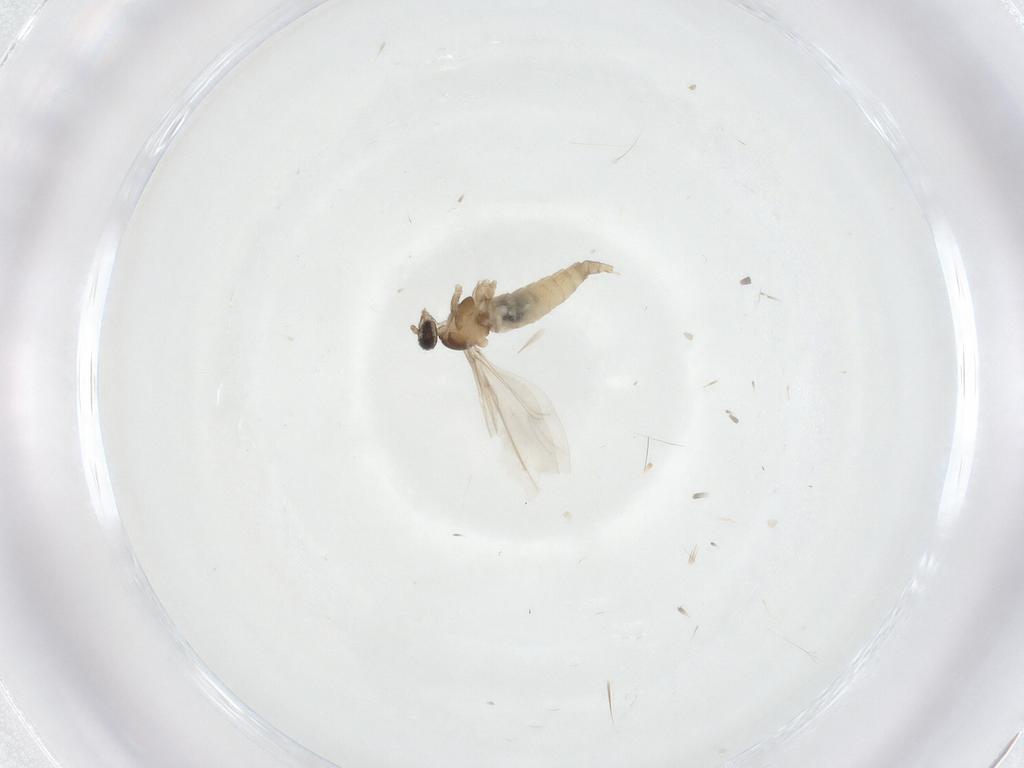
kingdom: Animalia
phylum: Arthropoda
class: Insecta
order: Diptera
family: Cecidomyiidae
